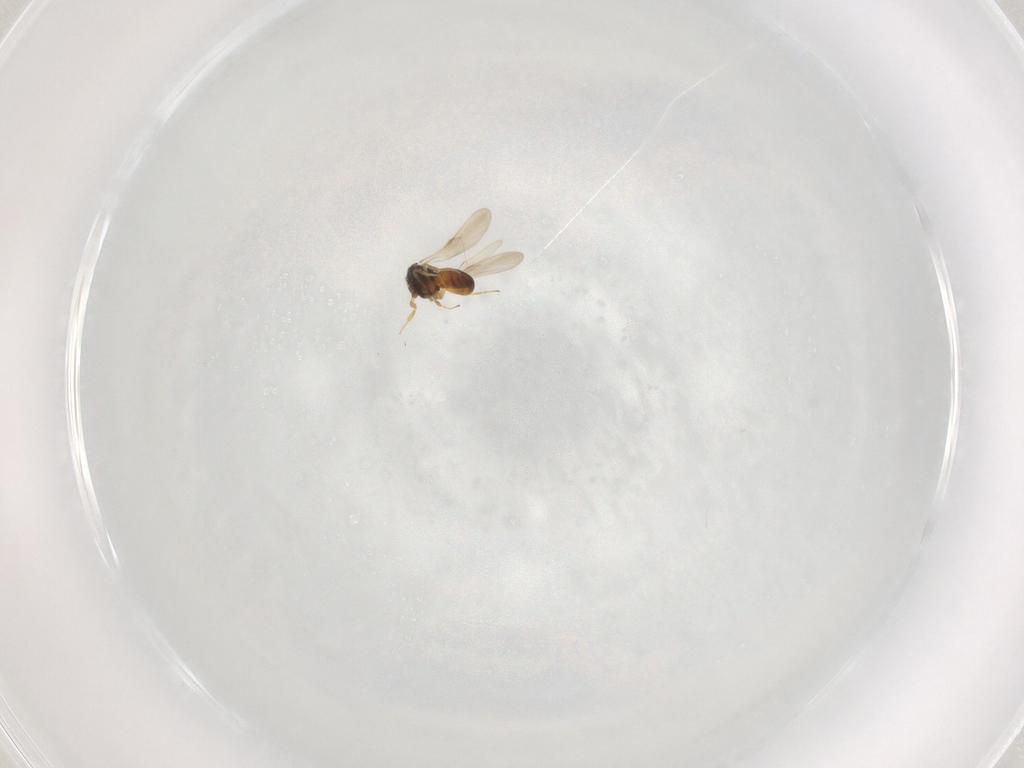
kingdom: Animalia
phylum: Arthropoda
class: Insecta
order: Hymenoptera
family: Scelionidae
